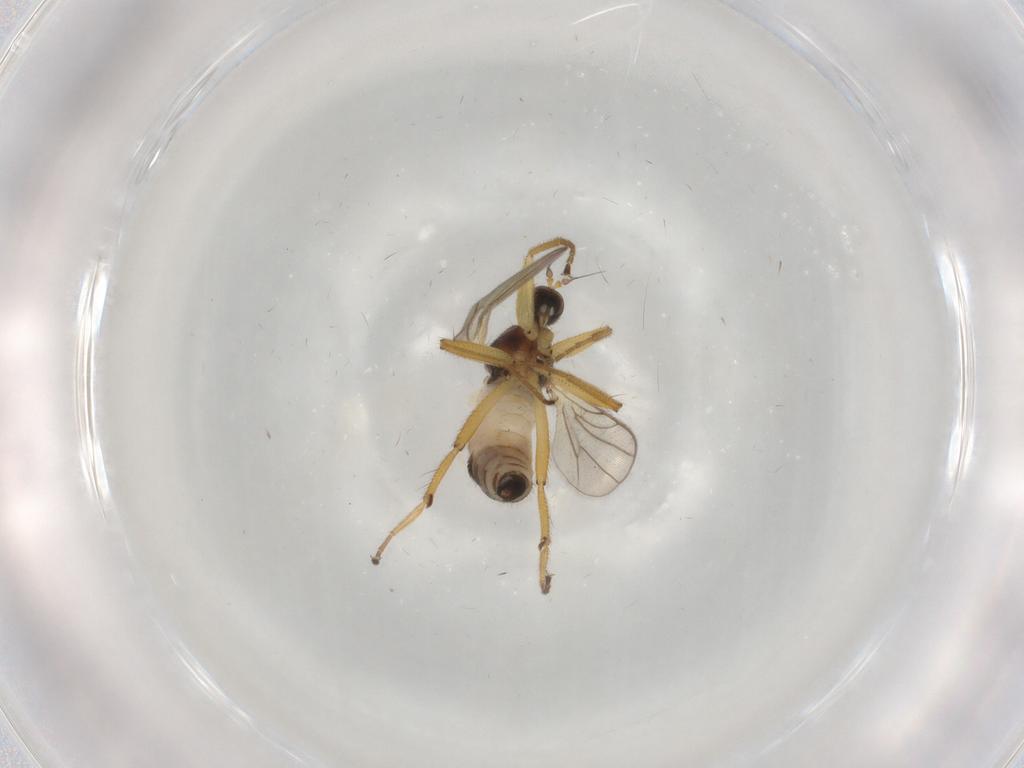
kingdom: Animalia
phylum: Arthropoda
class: Insecta
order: Diptera
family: Hybotidae
